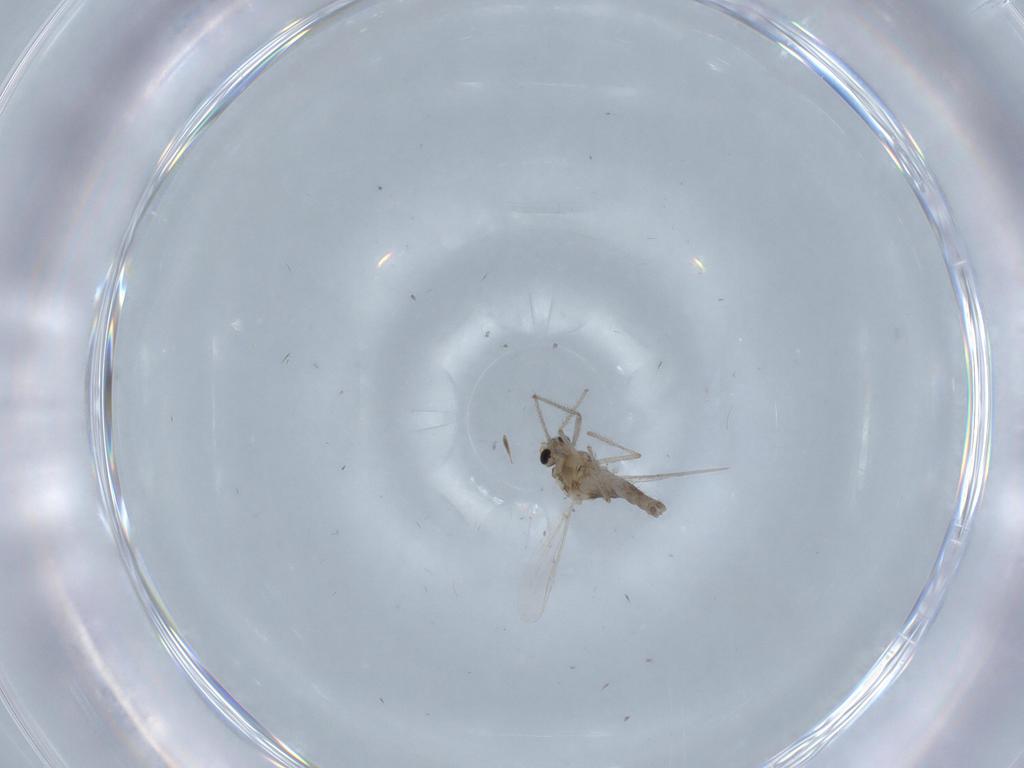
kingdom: Animalia
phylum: Arthropoda
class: Insecta
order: Diptera
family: Chironomidae
